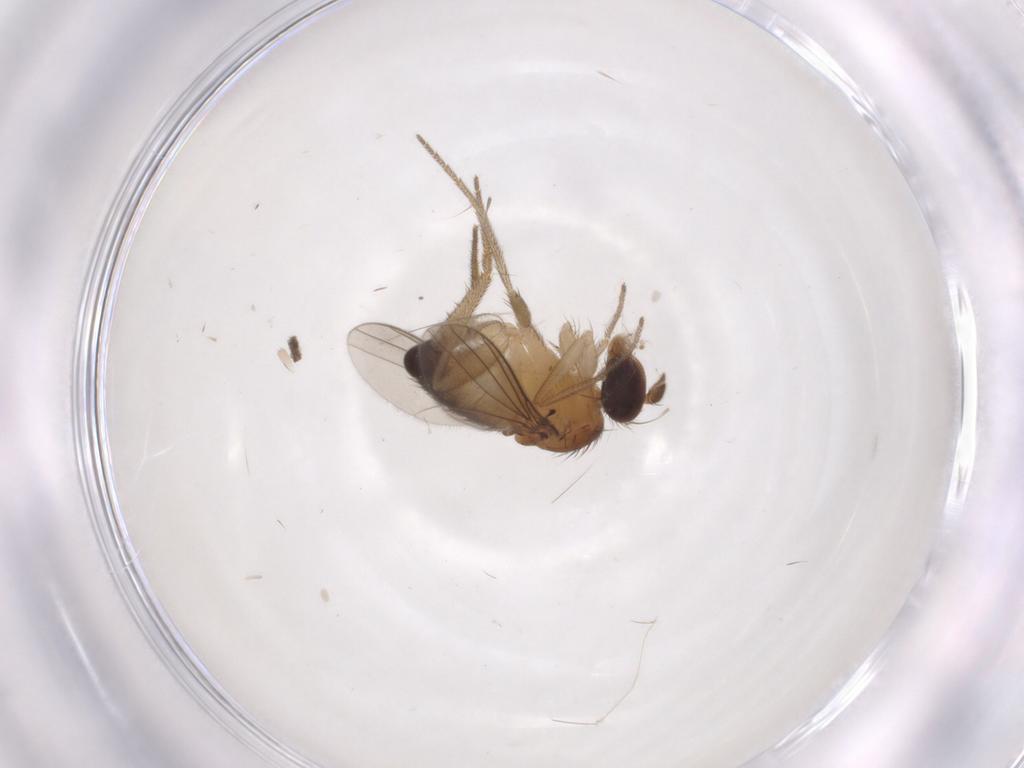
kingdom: Animalia
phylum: Arthropoda
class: Insecta
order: Diptera
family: Dolichopodidae
